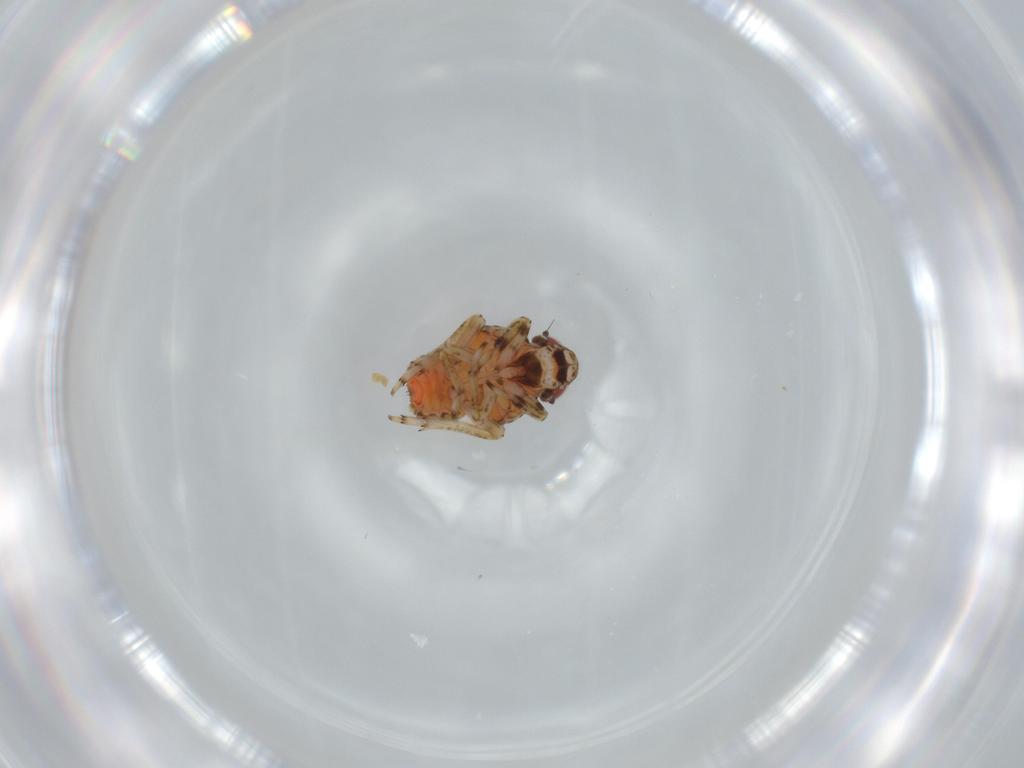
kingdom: Animalia
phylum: Arthropoda
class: Insecta
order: Hemiptera
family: Issidae
